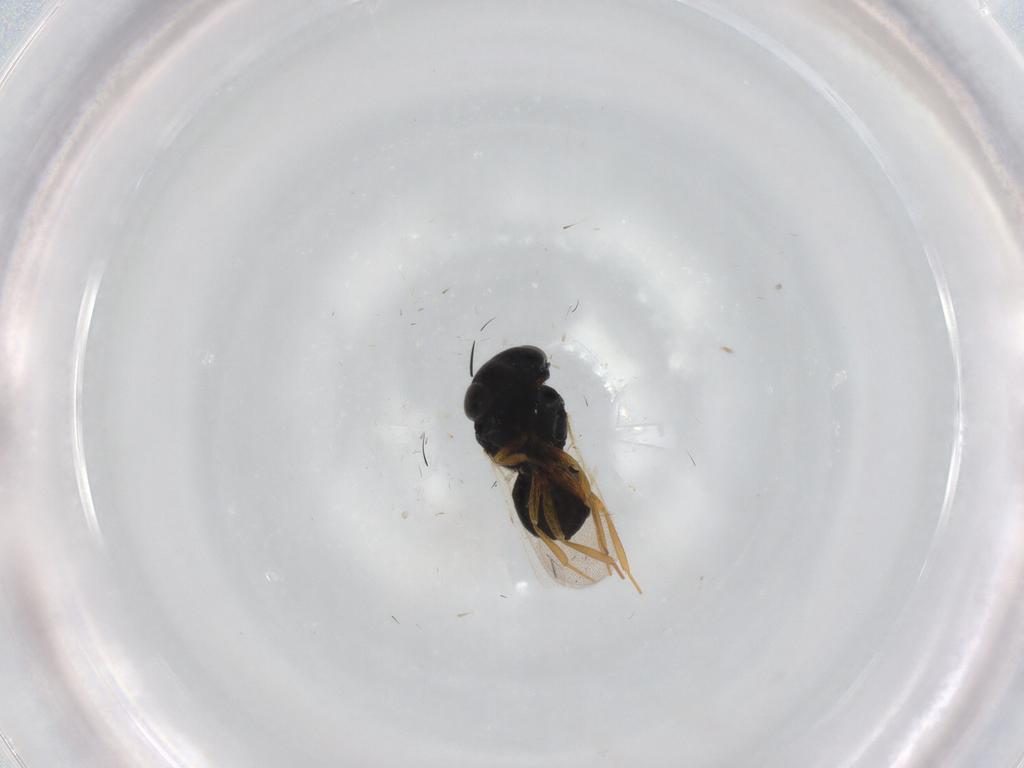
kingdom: Animalia
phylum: Arthropoda
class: Insecta
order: Hymenoptera
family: Scelionidae
